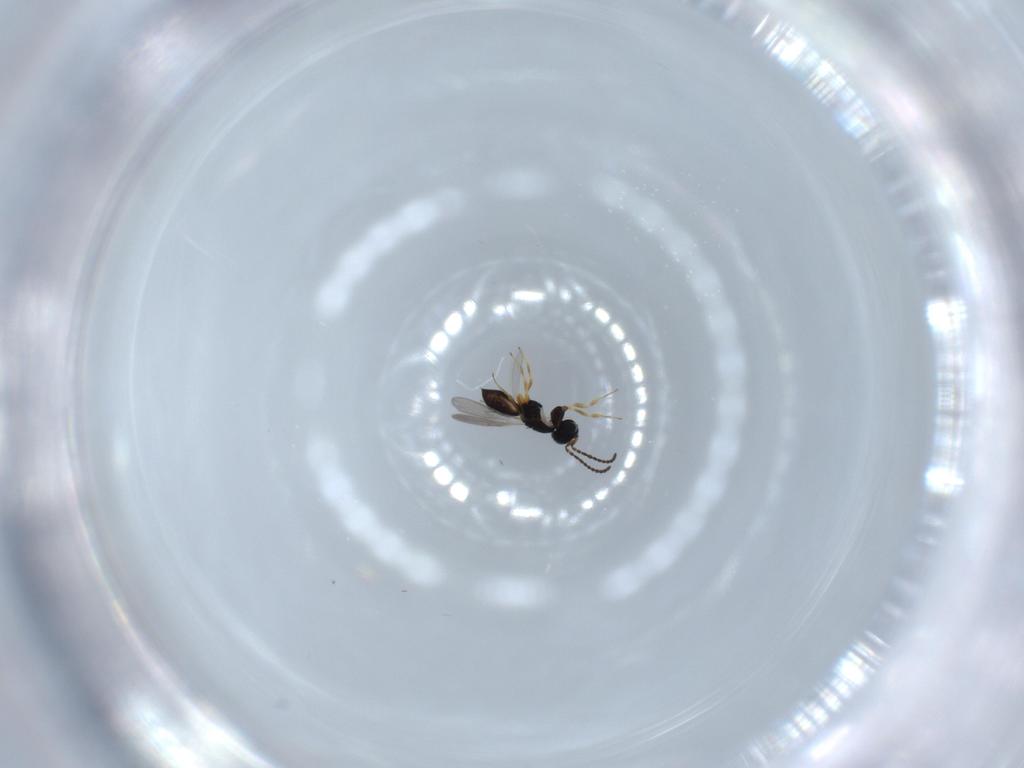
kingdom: Animalia
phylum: Arthropoda
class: Insecta
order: Hymenoptera
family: Scelionidae
